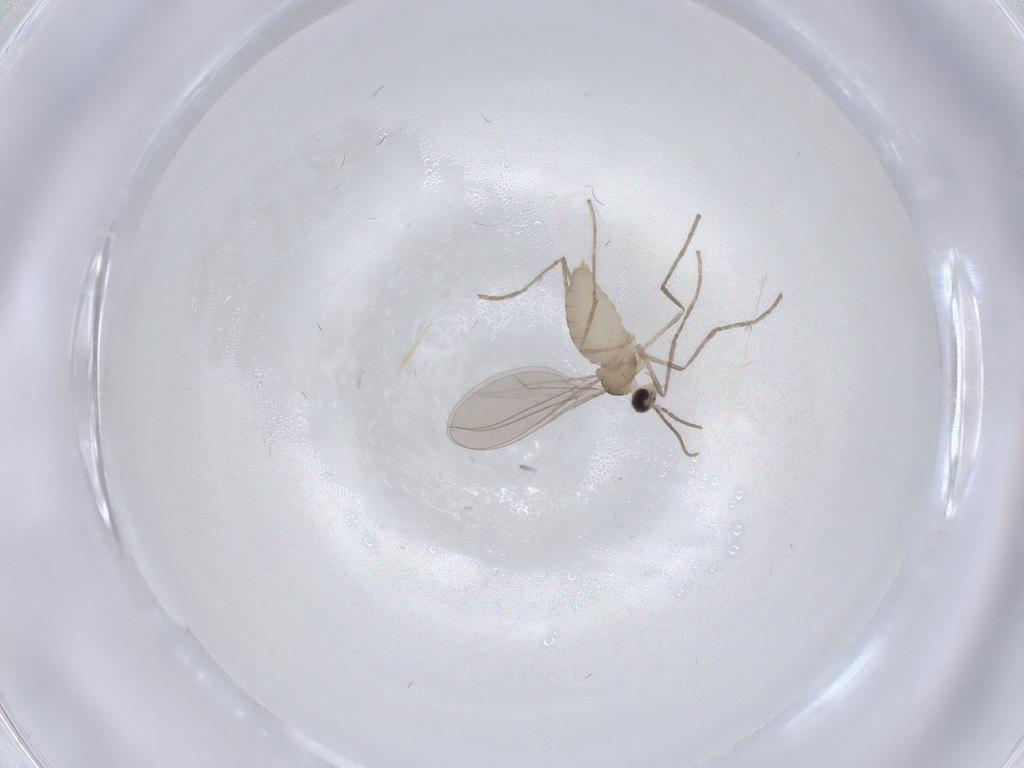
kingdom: Animalia
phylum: Arthropoda
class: Insecta
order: Diptera
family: Cecidomyiidae
